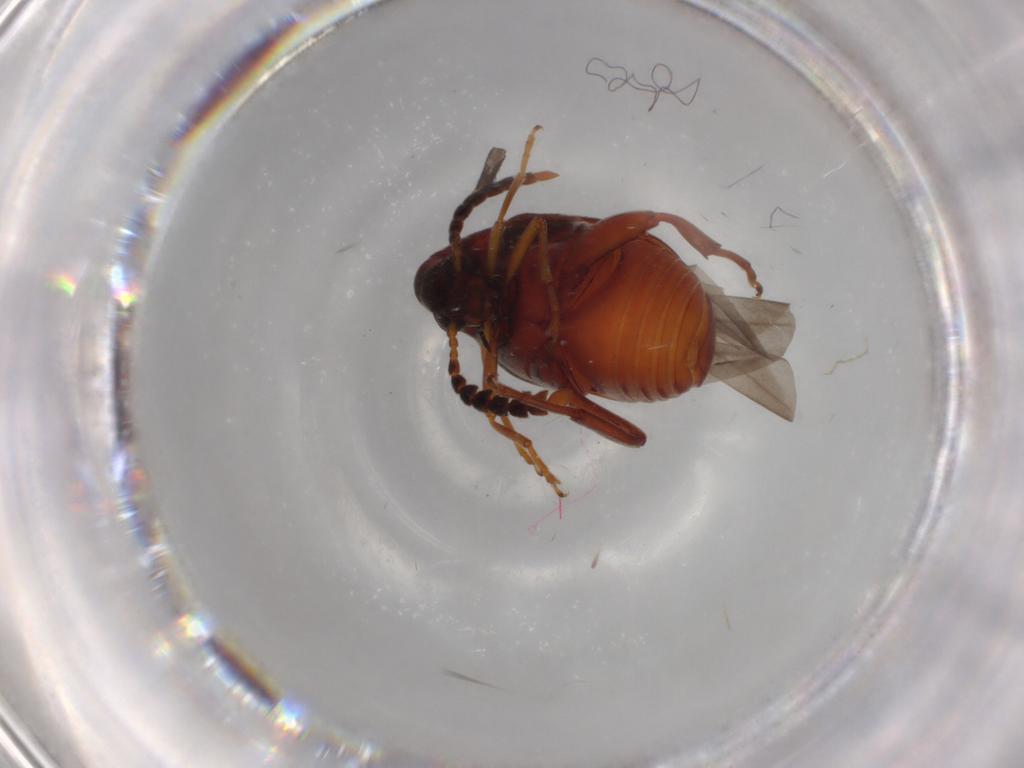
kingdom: Animalia
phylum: Arthropoda
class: Insecta
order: Coleoptera
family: Chrysomelidae
